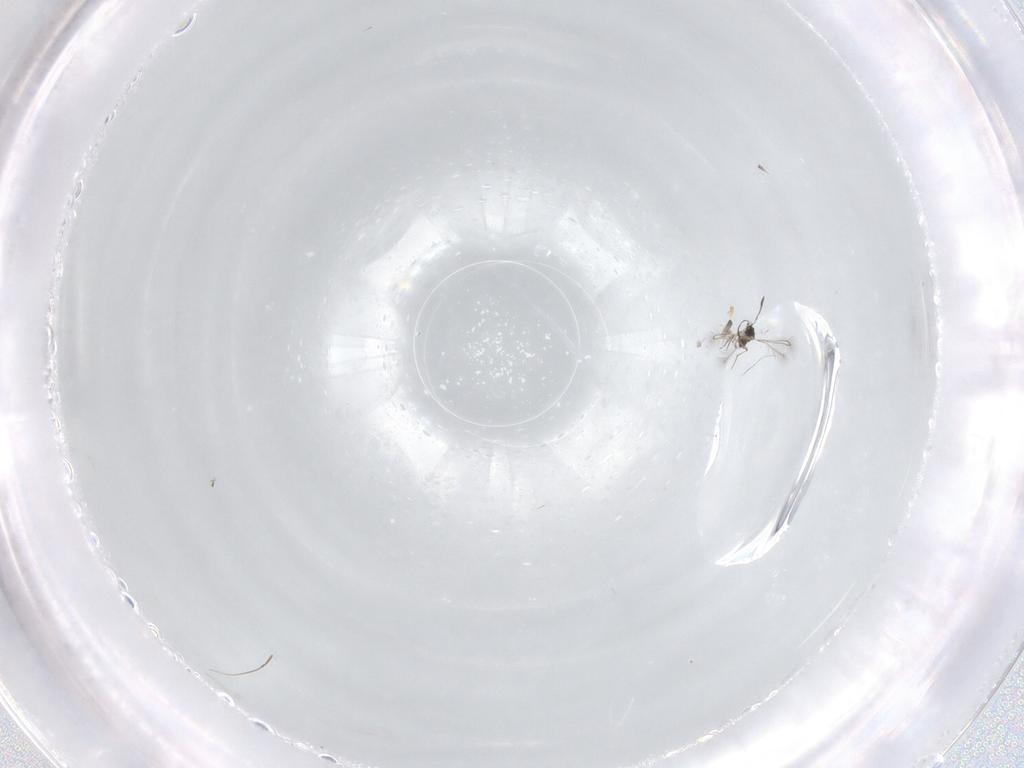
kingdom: Animalia
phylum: Arthropoda
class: Insecta
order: Hymenoptera
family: Mymaridae
